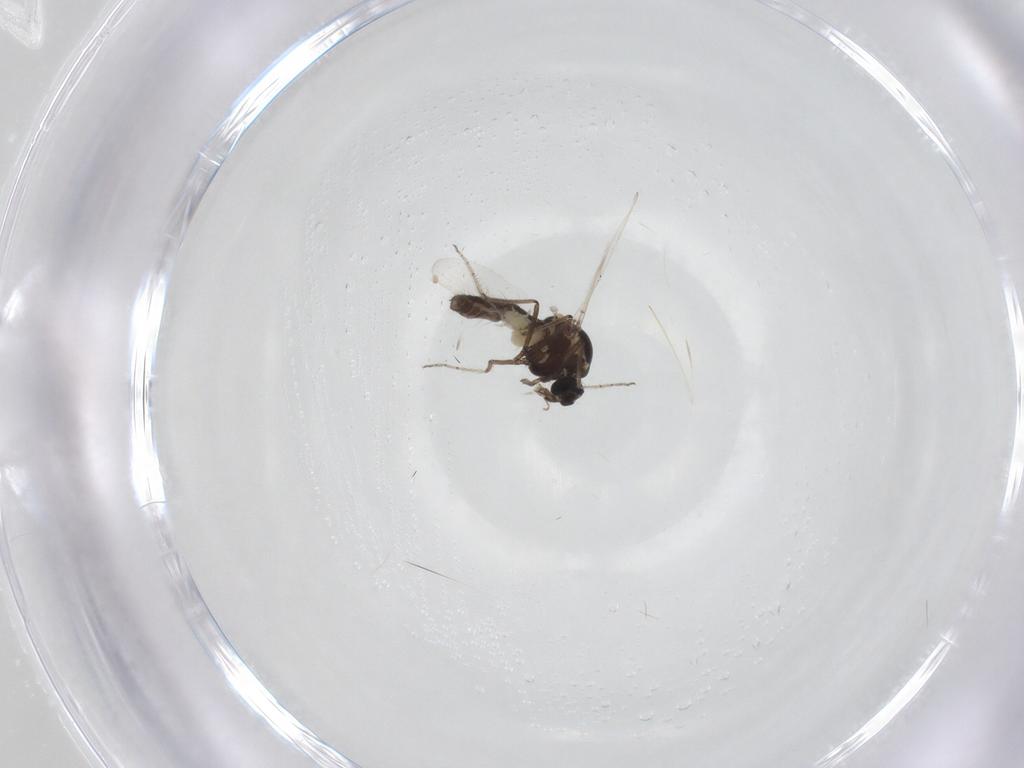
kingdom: Animalia
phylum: Arthropoda
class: Insecta
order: Diptera
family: Ceratopogonidae
